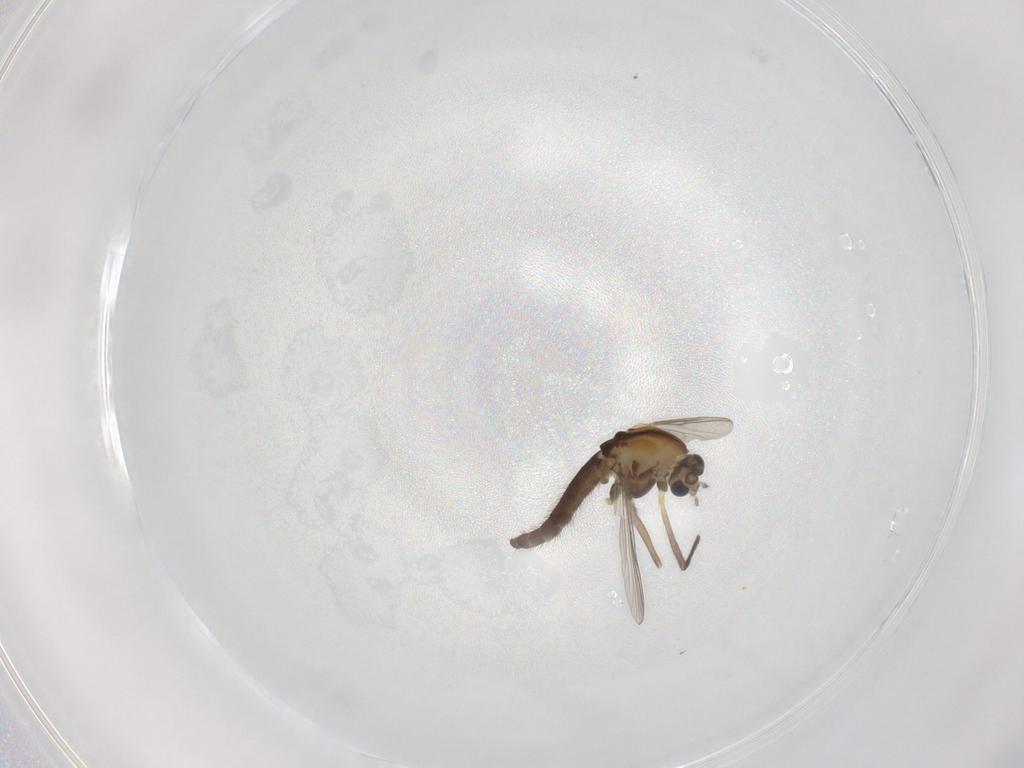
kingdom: Animalia
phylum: Arthropoda
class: Insecta
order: Diptera
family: Chironomidae
